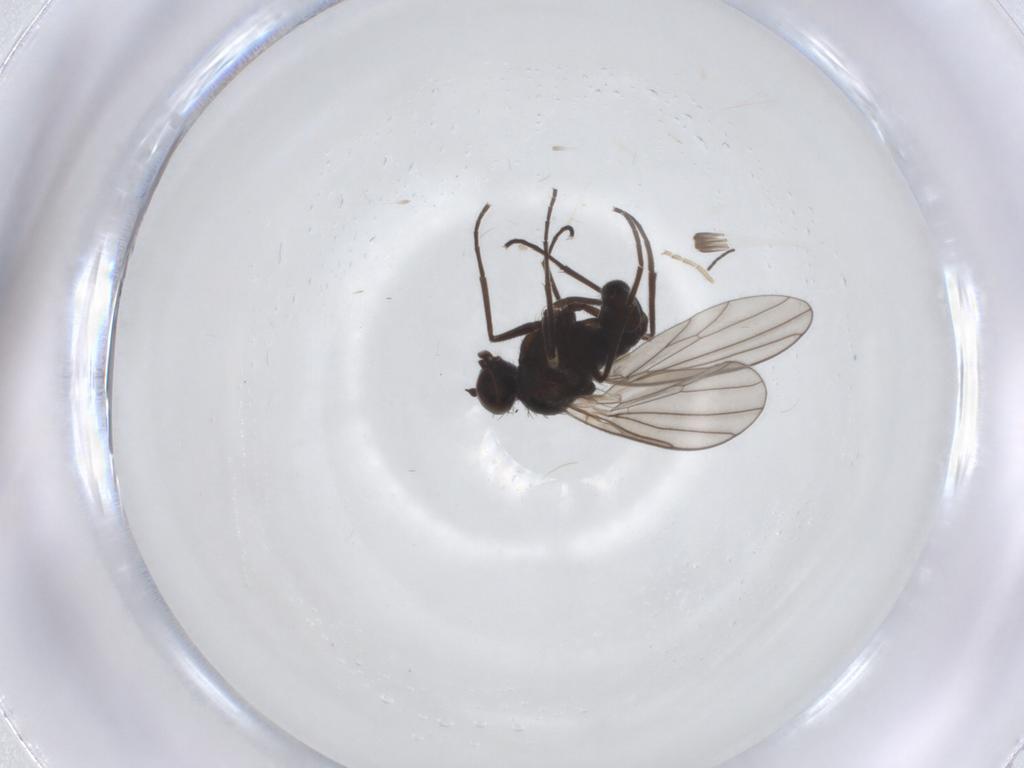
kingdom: Animalia
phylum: Arthropoda
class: Insecta
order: Diptera
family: Ceratopogonidae
